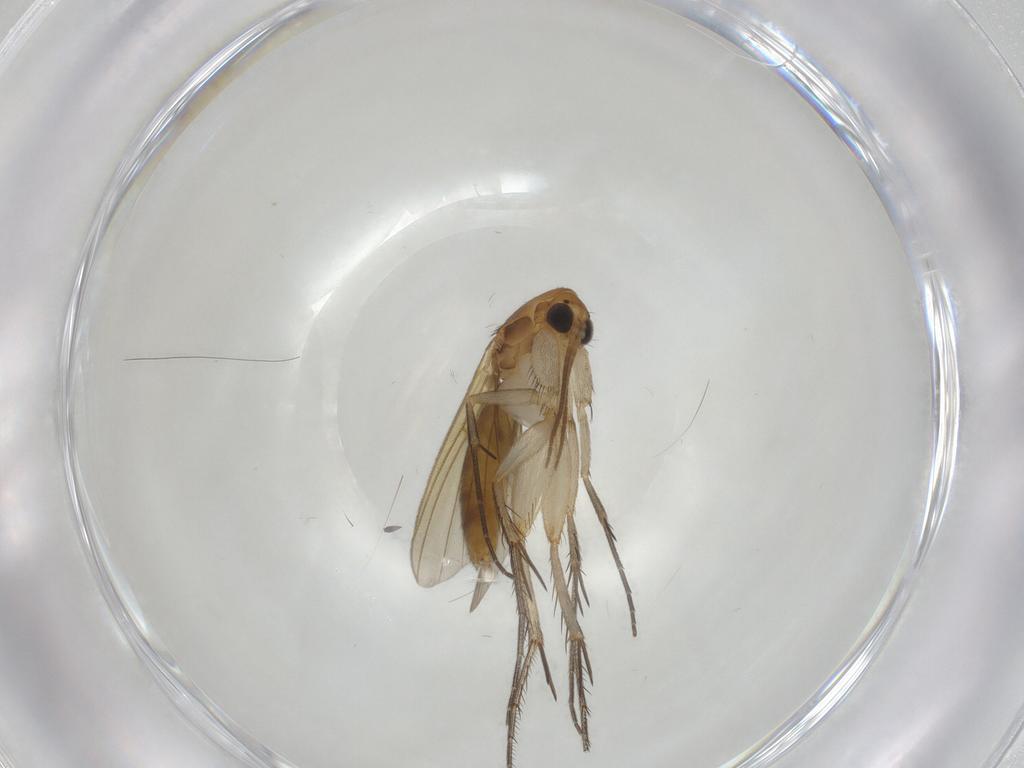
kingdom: Animalia
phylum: Arthropoda
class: Insecta
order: Diptera
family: Mycetophilidae
